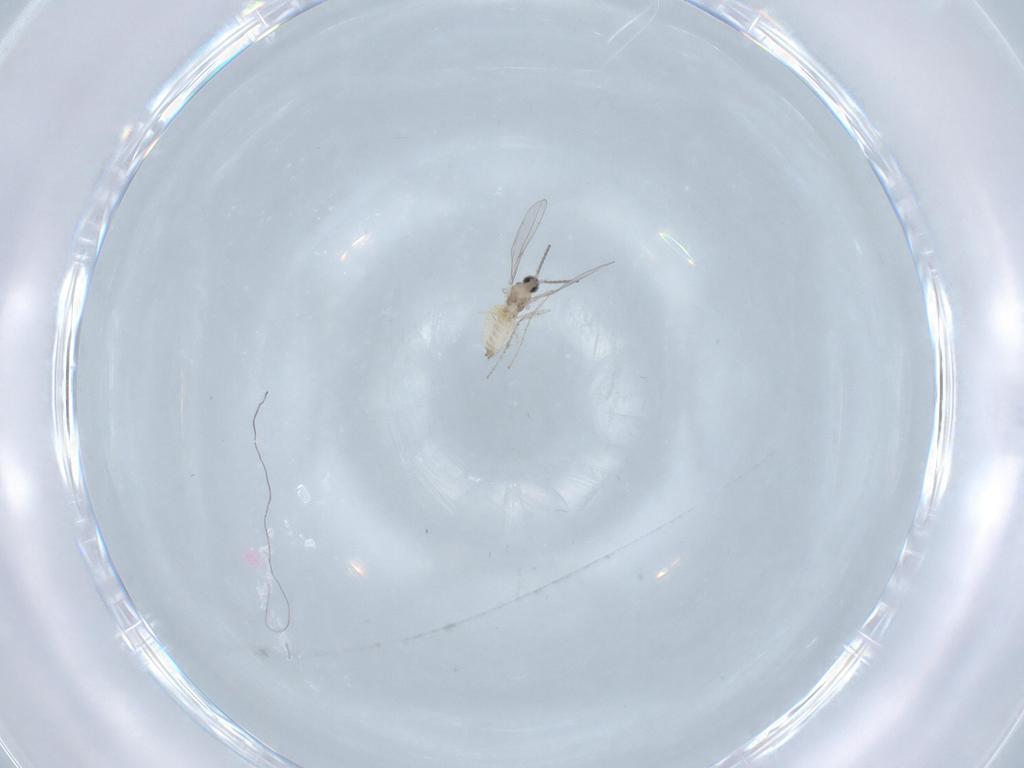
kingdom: Animalia
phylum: Arthropoda
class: Insecta
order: Diptera
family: Cecidomyiidae
